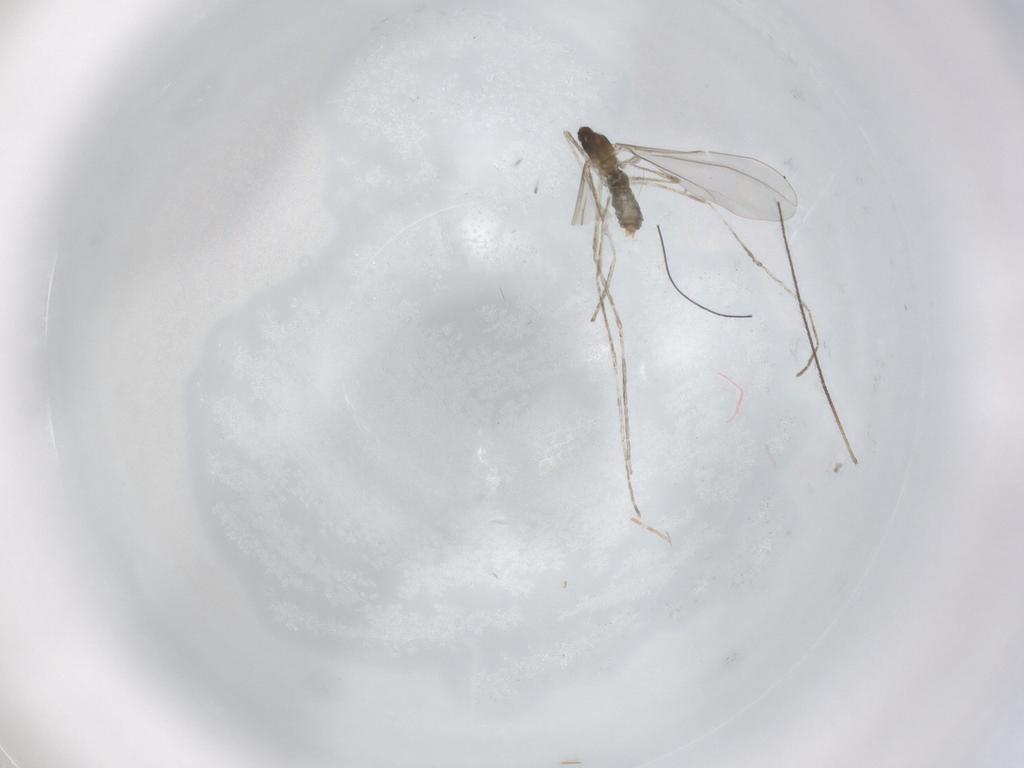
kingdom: Animalia
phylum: Arthropoda
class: Insecta
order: Diptera
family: Cecidomyiidae
